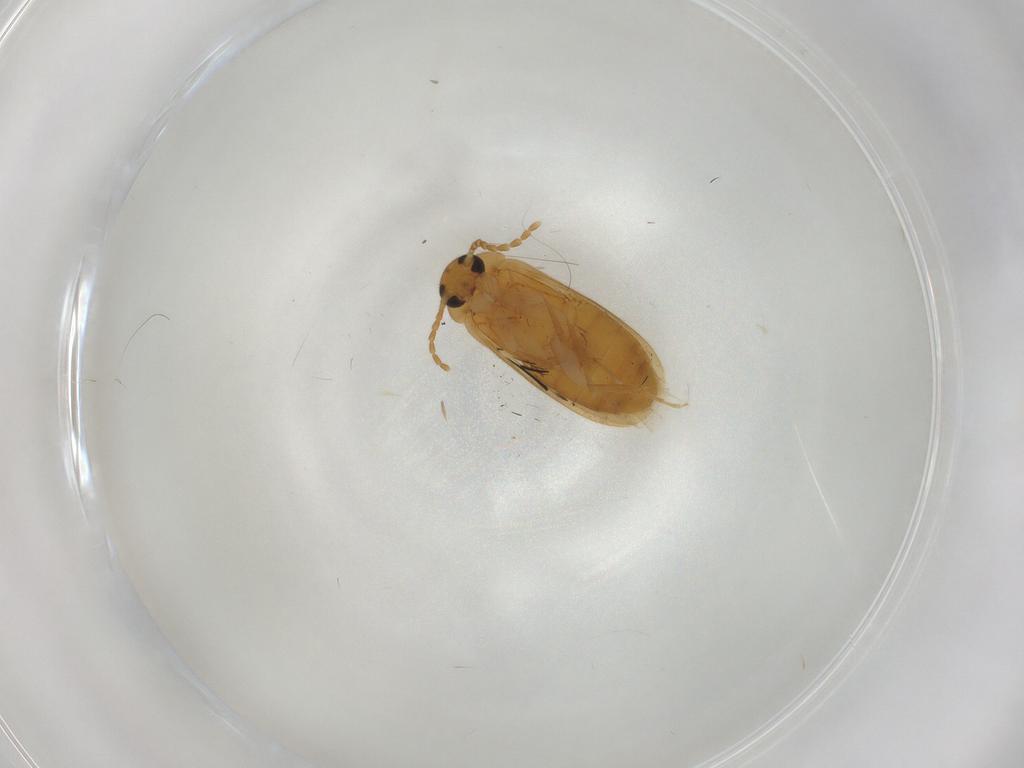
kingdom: Animalia
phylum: Arthropoda
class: Insecta
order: Coleoptera
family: Scraptiidae
